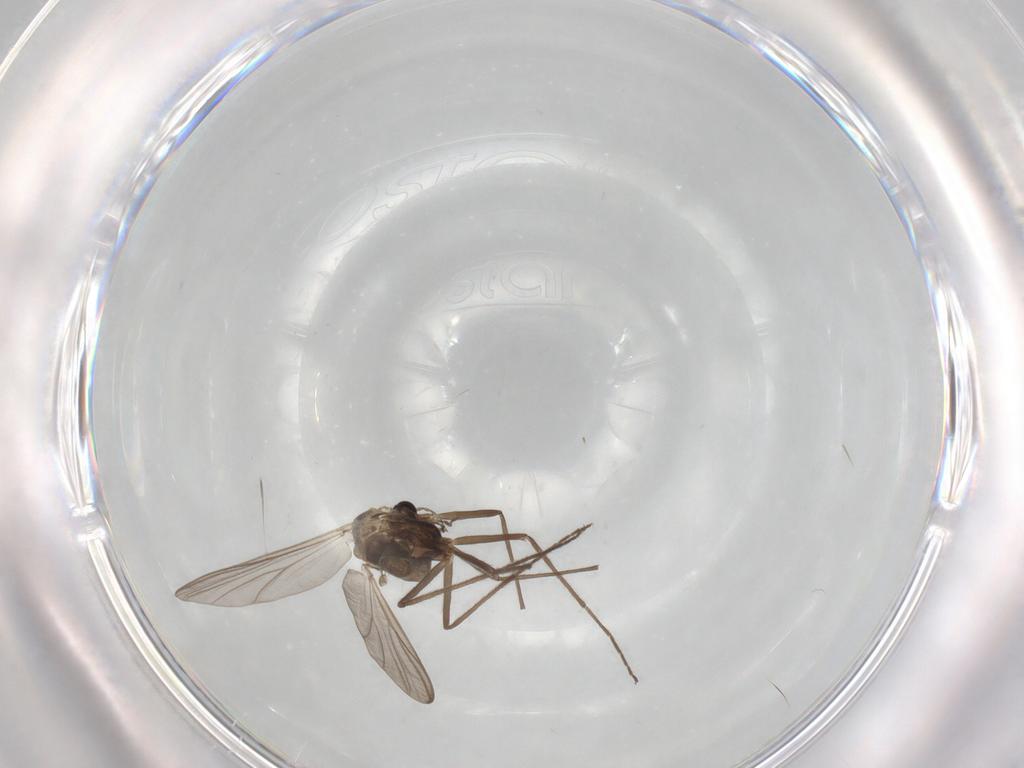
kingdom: Animalia
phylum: Arthropoda
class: Insecta
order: Diptera
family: Chironomidae
